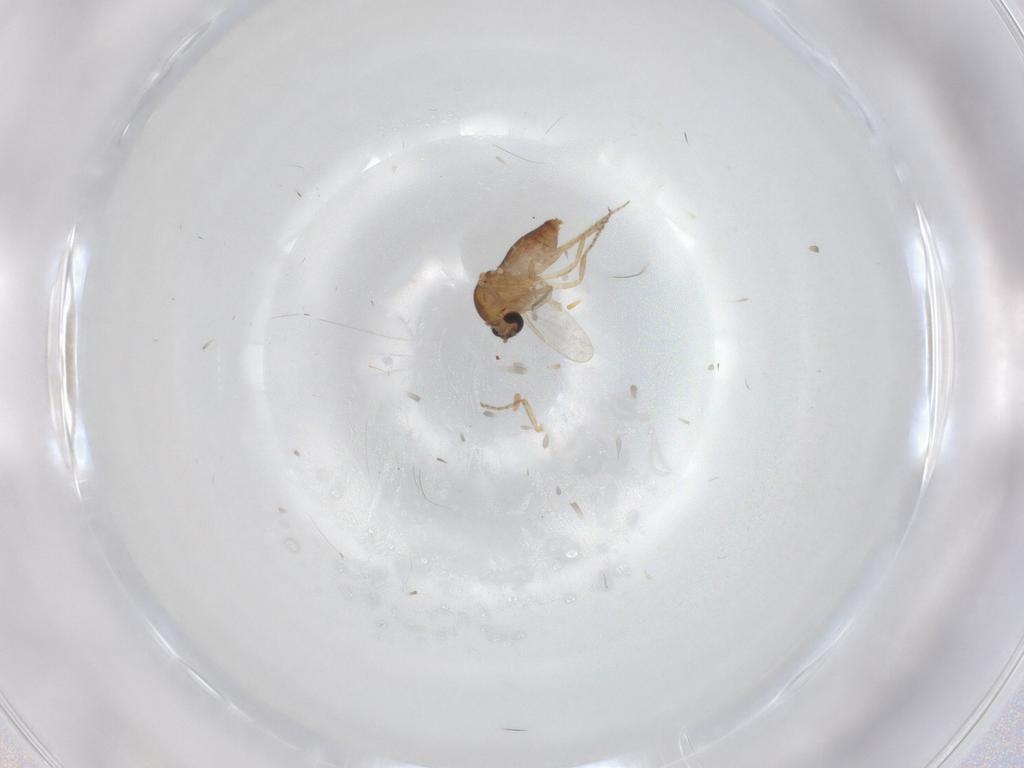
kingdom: Animalia
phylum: Arthropoda
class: Insecta
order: Diptera
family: Ceratopogonidae
